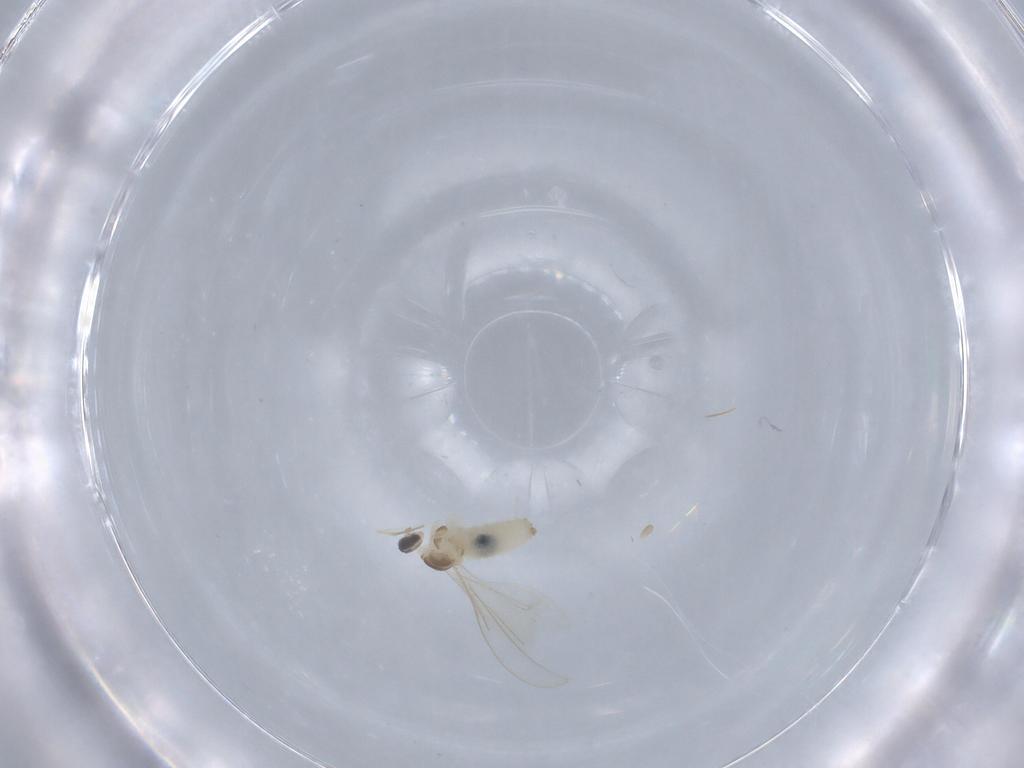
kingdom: Animalia
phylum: Arthropoda
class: Insecta
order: Diptera
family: Cecidomyiidae
